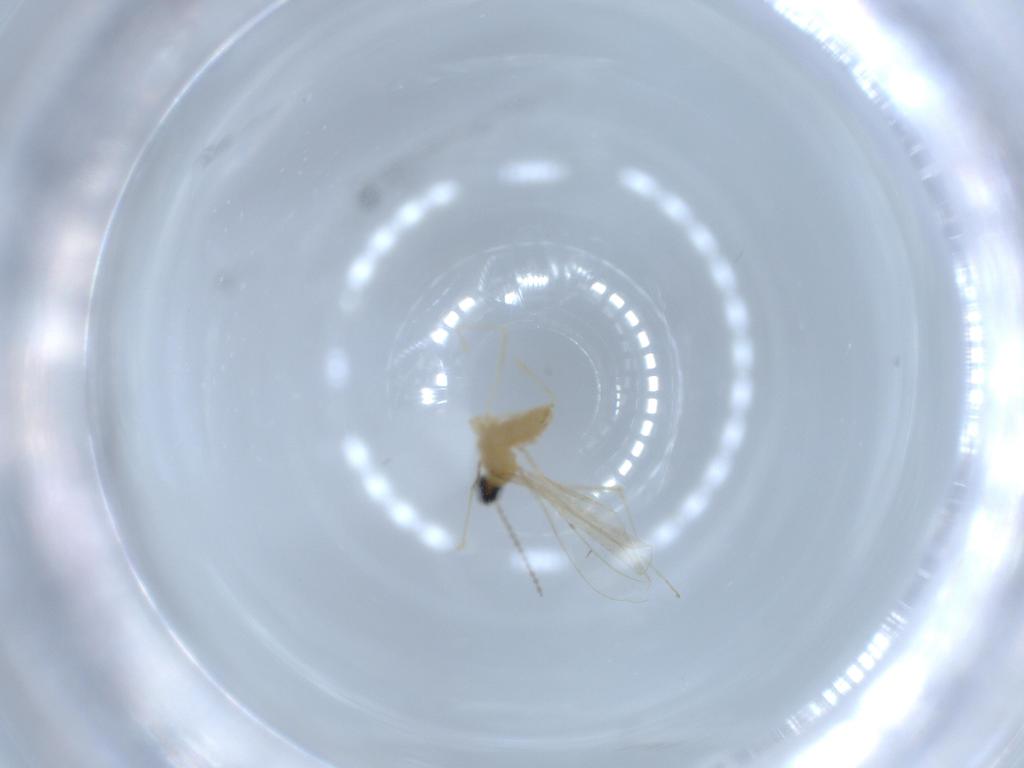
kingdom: Animalia
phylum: Arthropoda
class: Insecta
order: Diptera
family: Cecidomyiidae
